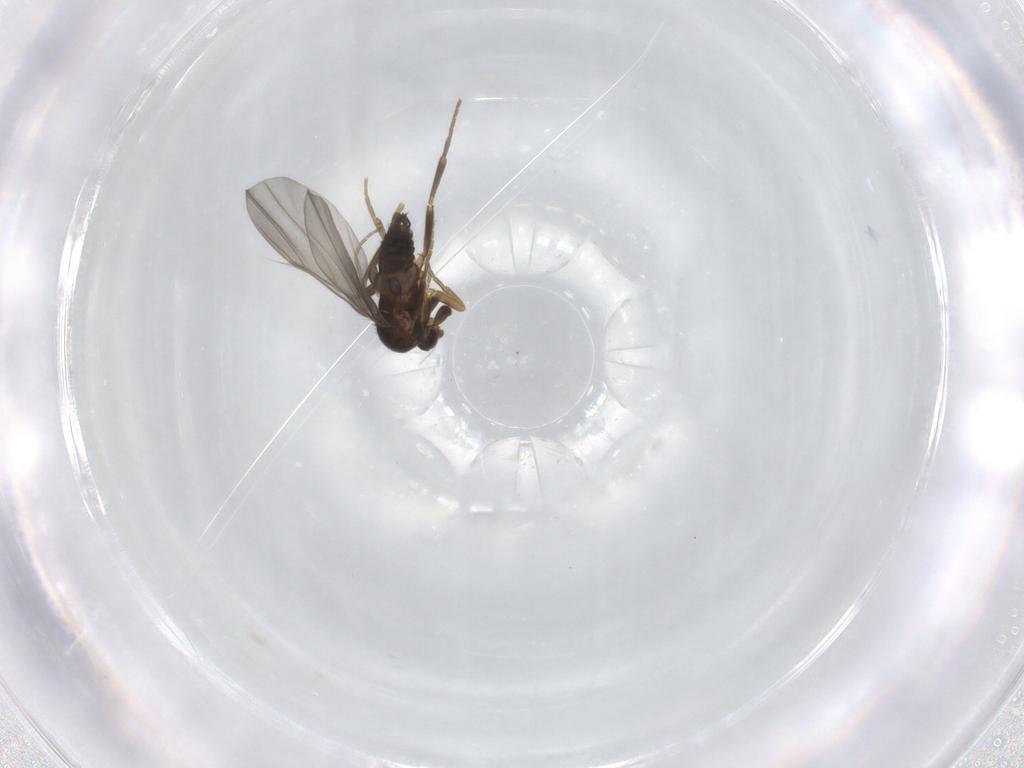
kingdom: Animalia
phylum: Arthropoda
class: Insecta
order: Diptera
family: Phoridae
